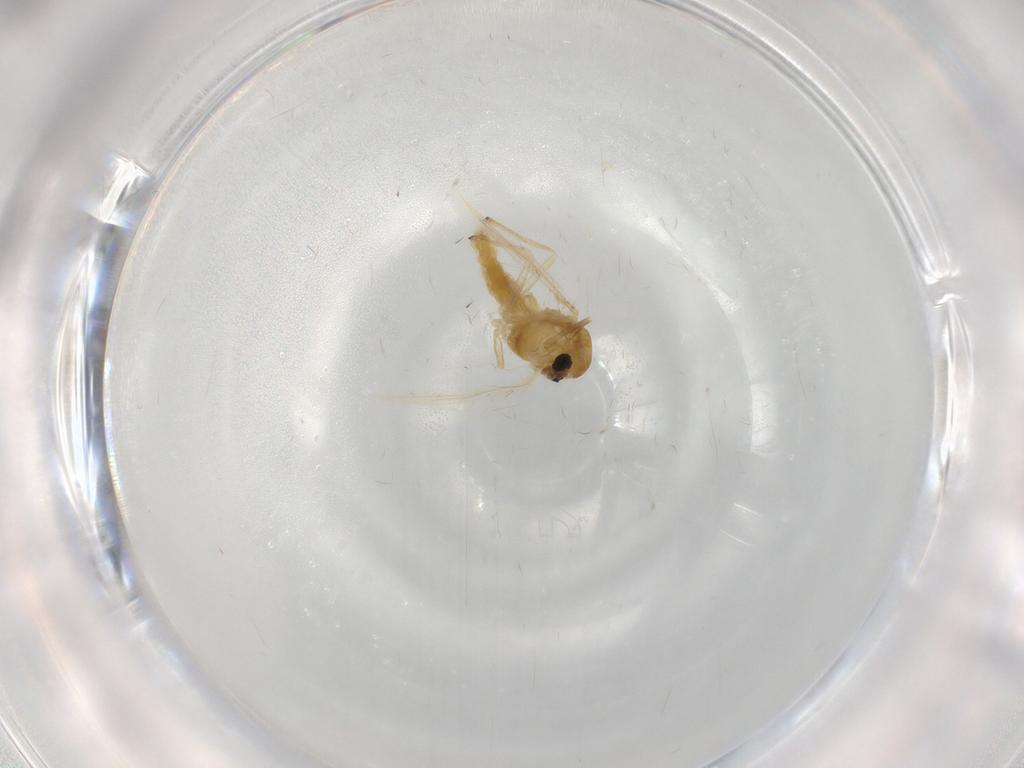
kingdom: Animalia
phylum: Arthropoda
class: Insecta
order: Diptera
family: Chironomidae
